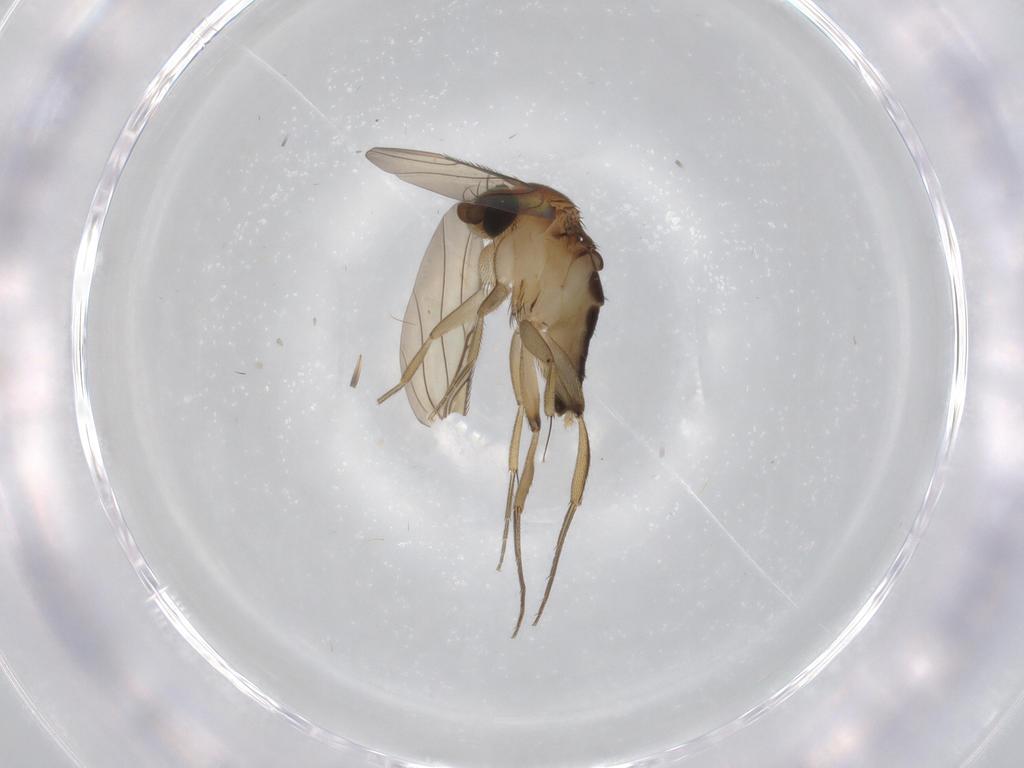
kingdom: Animalia
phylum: Arthropoda
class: Insecta
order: Diptera
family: Phoridae
